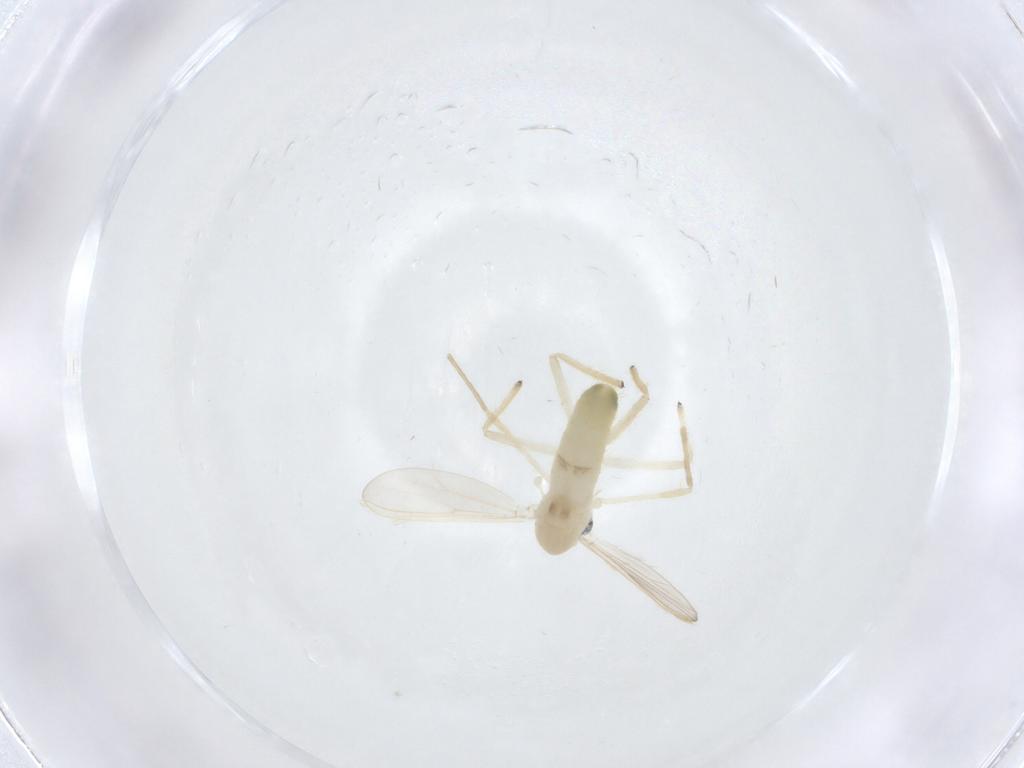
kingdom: Animalia
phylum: Arthropoda
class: Insecta
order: Diptera
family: Chironomidae
